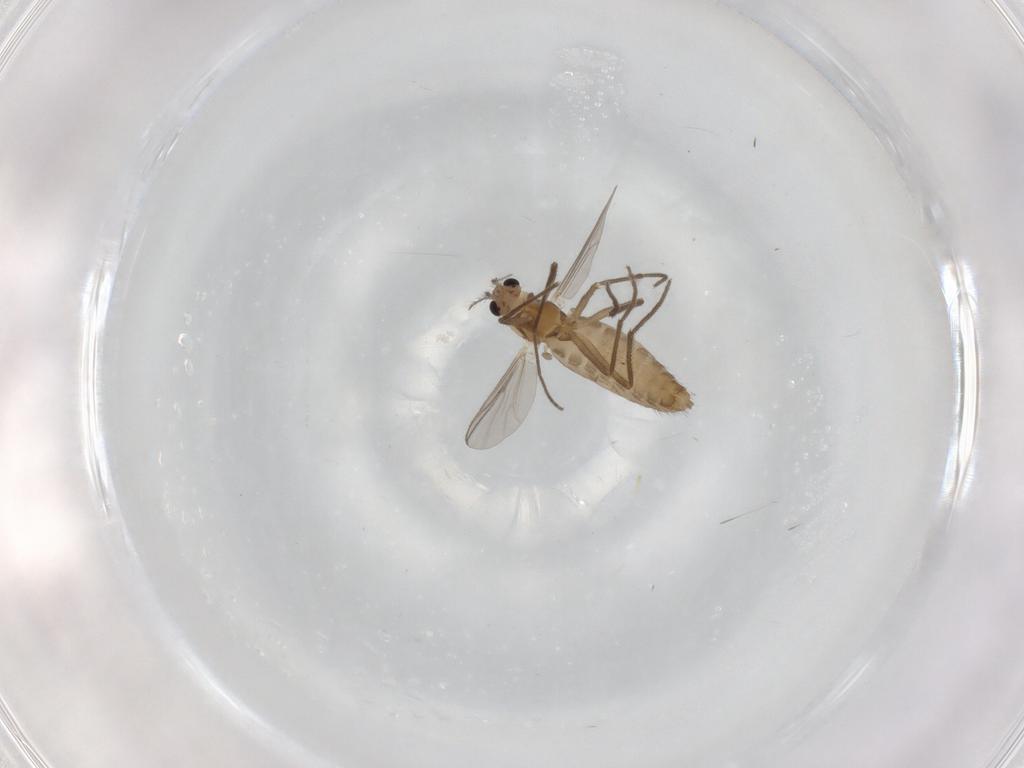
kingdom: Animalia
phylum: Arthropoda
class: Insecta
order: Diptera
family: Chironomidae
